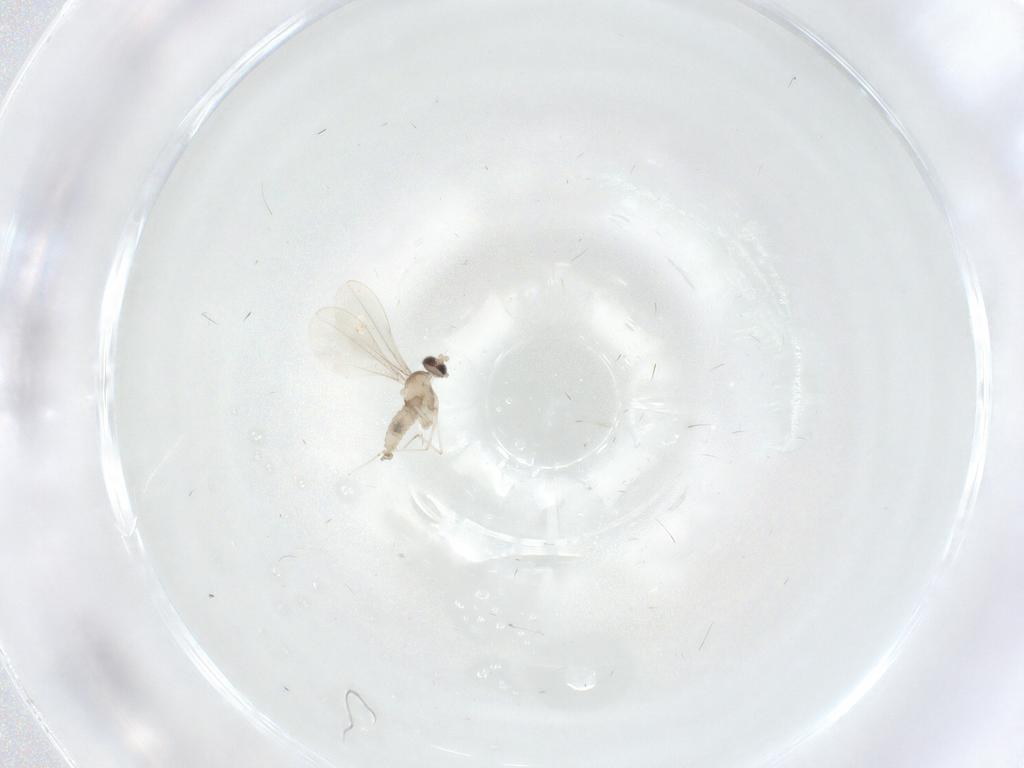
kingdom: Animalia
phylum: Arthropoda
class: Insecta
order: Diptera
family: Cecidomyiidae
